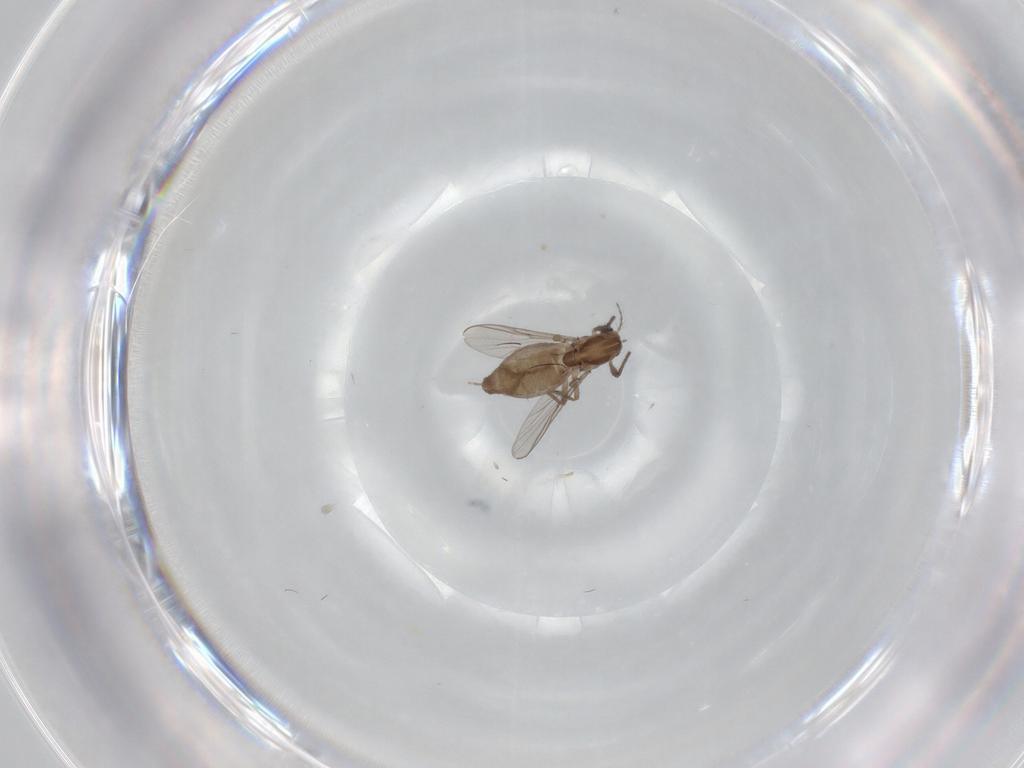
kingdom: Animalia
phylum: Arthropoda
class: Insecta
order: Diptera
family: Chironomidae
